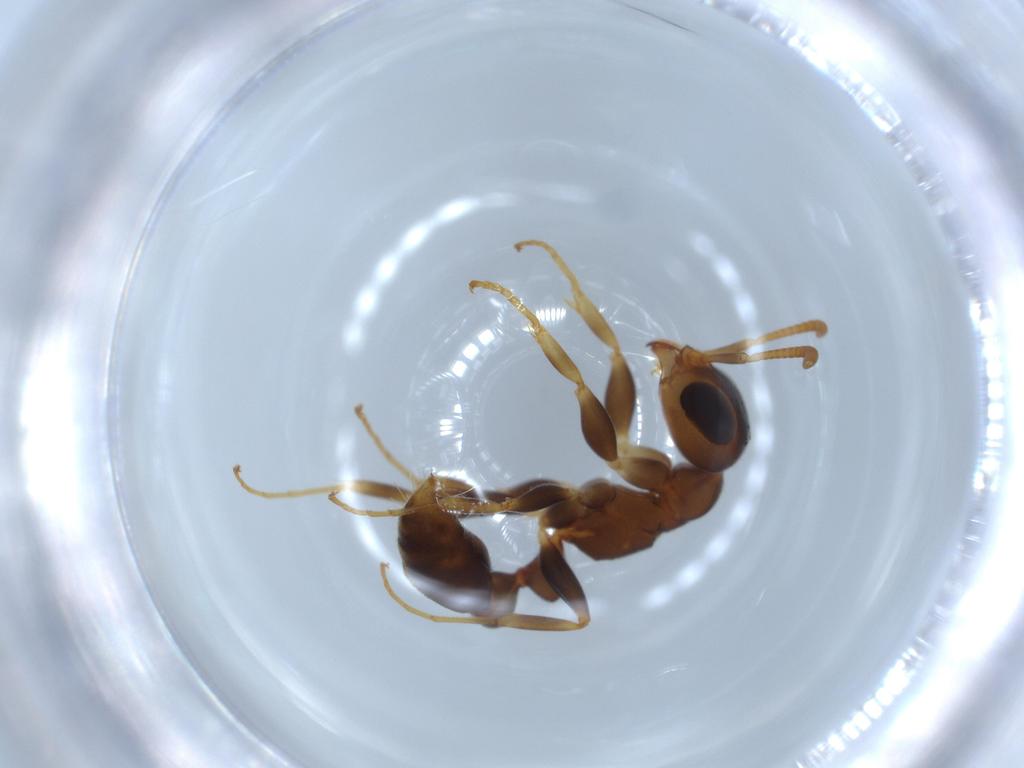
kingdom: Animalia
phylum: Arthropoda
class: Insecta
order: Hymenoptera
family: Formicidae
